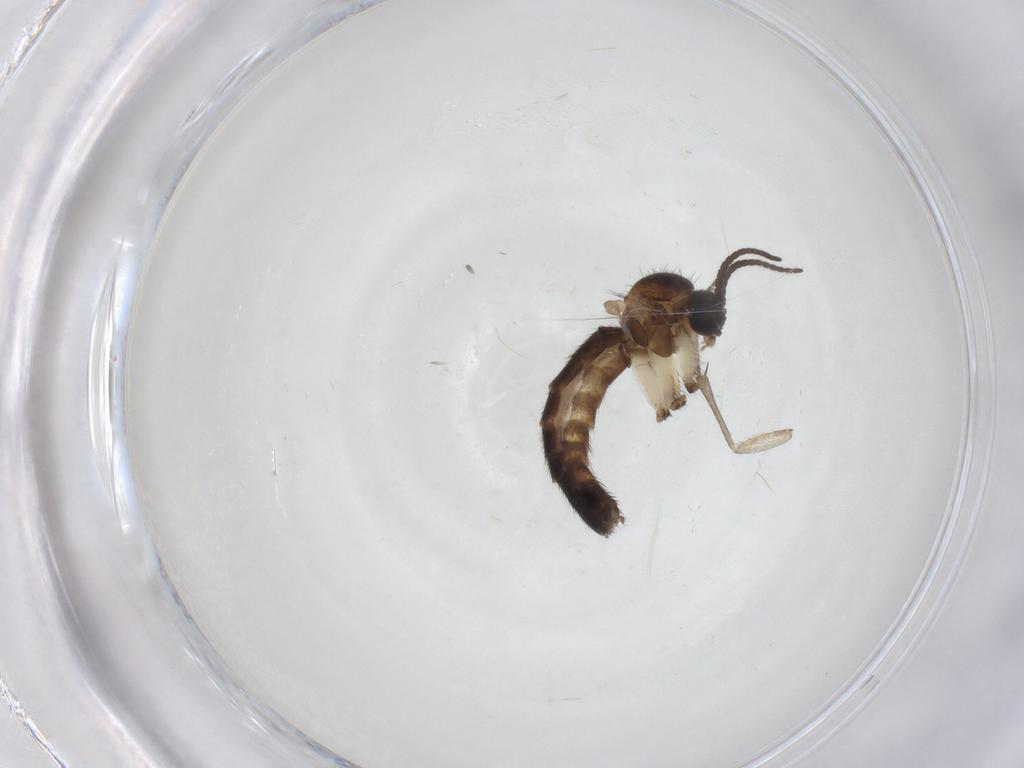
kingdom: Animalia
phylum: Arthropoda
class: Insecta
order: Diptera
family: Keroplatidae
